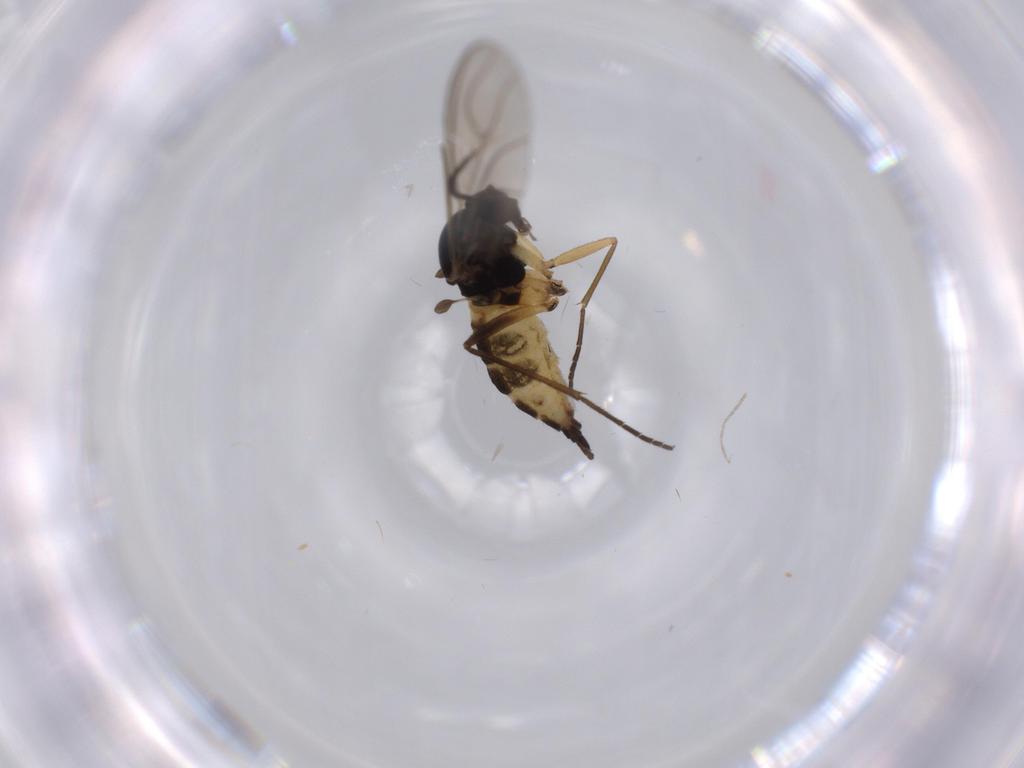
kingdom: Animalia
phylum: Arthropoda
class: Insecta
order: Diptera
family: Sciaridae
